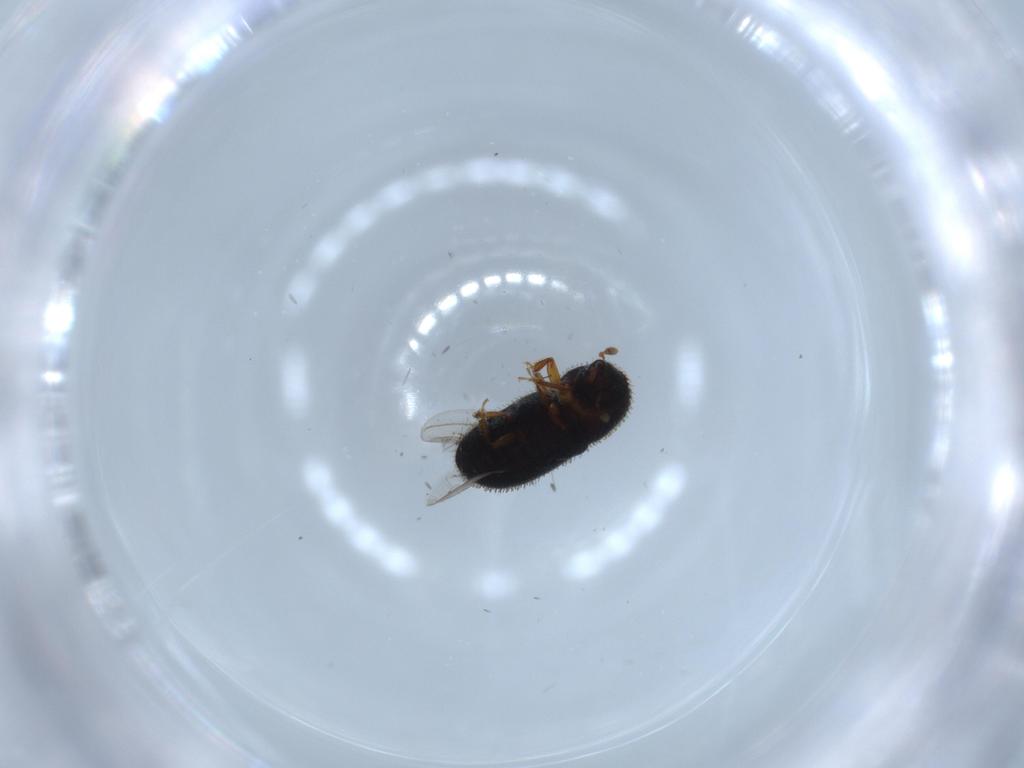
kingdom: Animalia
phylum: Arthropoda
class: Insecta
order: Coleoptera
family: Curculionidae
